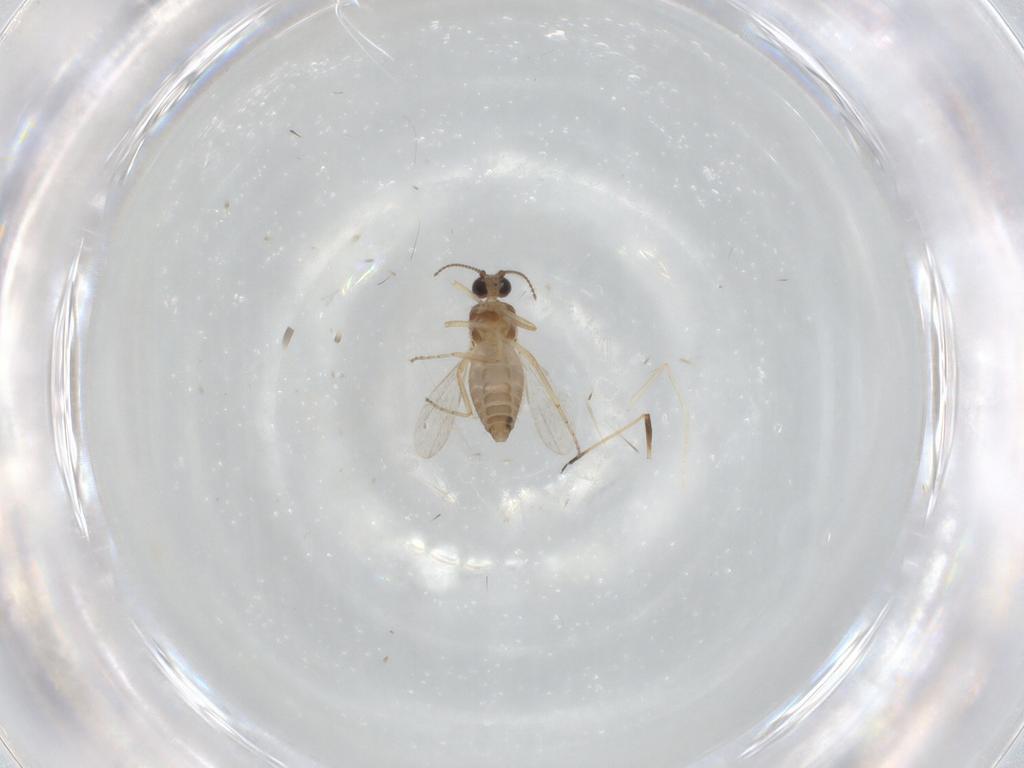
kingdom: Animalia
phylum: Arthropoda
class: Insecta
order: Diptera
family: Ceratopogonidae
